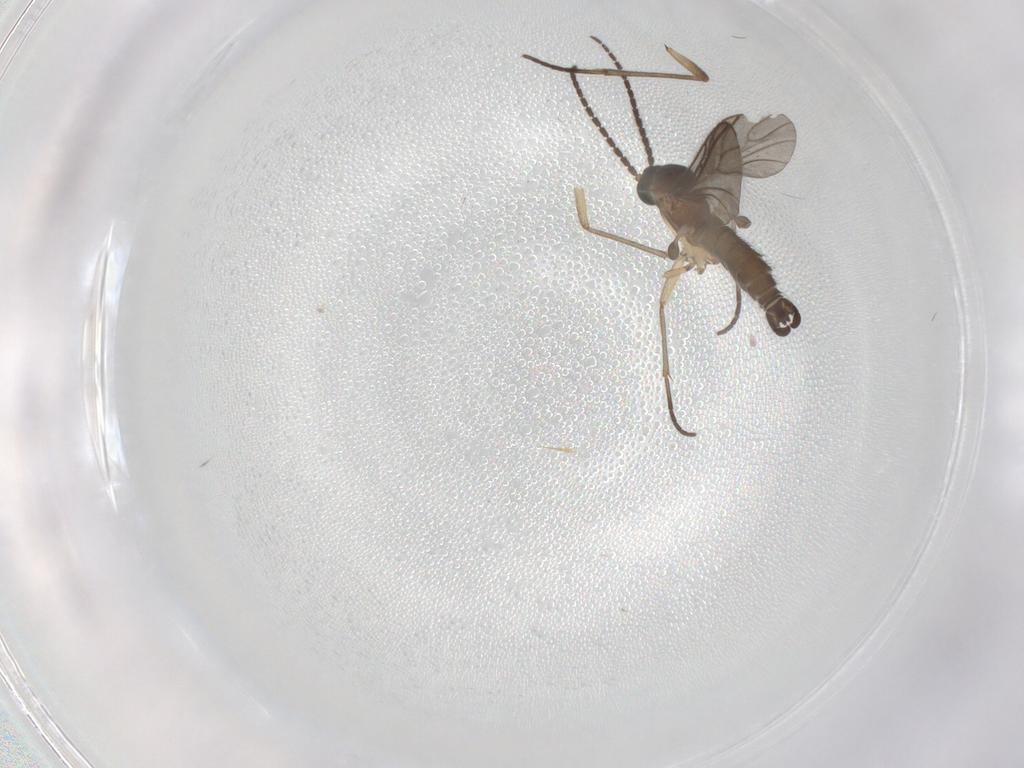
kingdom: Animalia
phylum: Arthropoda
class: Insecta
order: Diptera
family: Sciaridae
